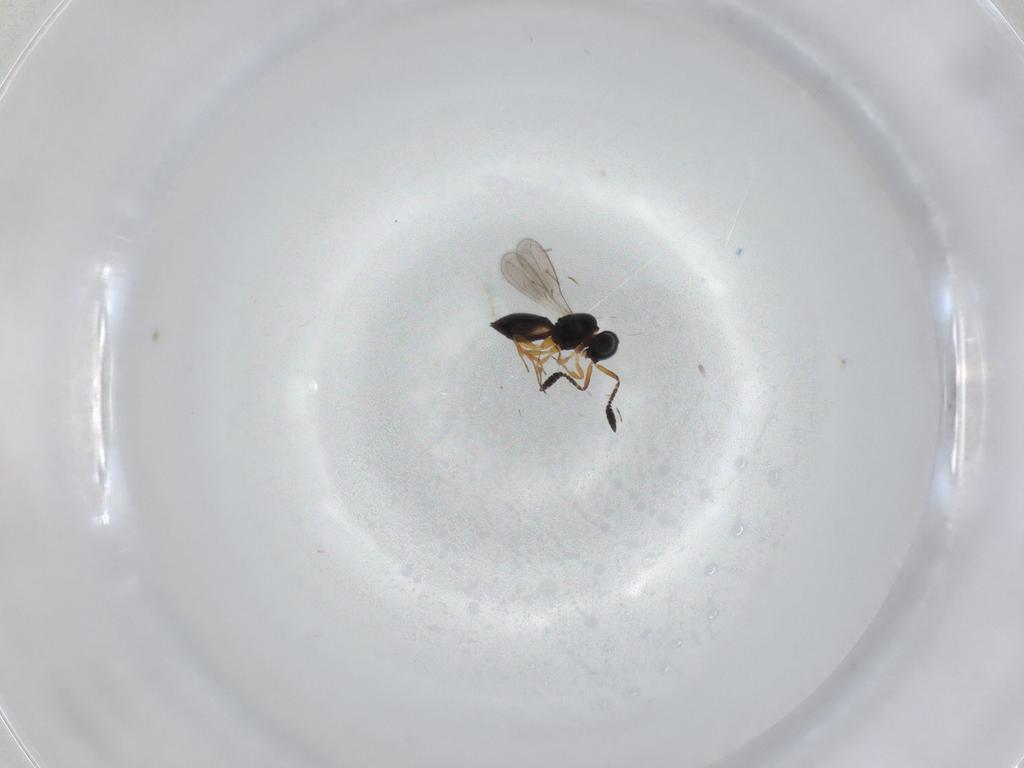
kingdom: Animalia
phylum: Arthropoda
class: Insecta
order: Hymenoptera
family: Scelionidae
